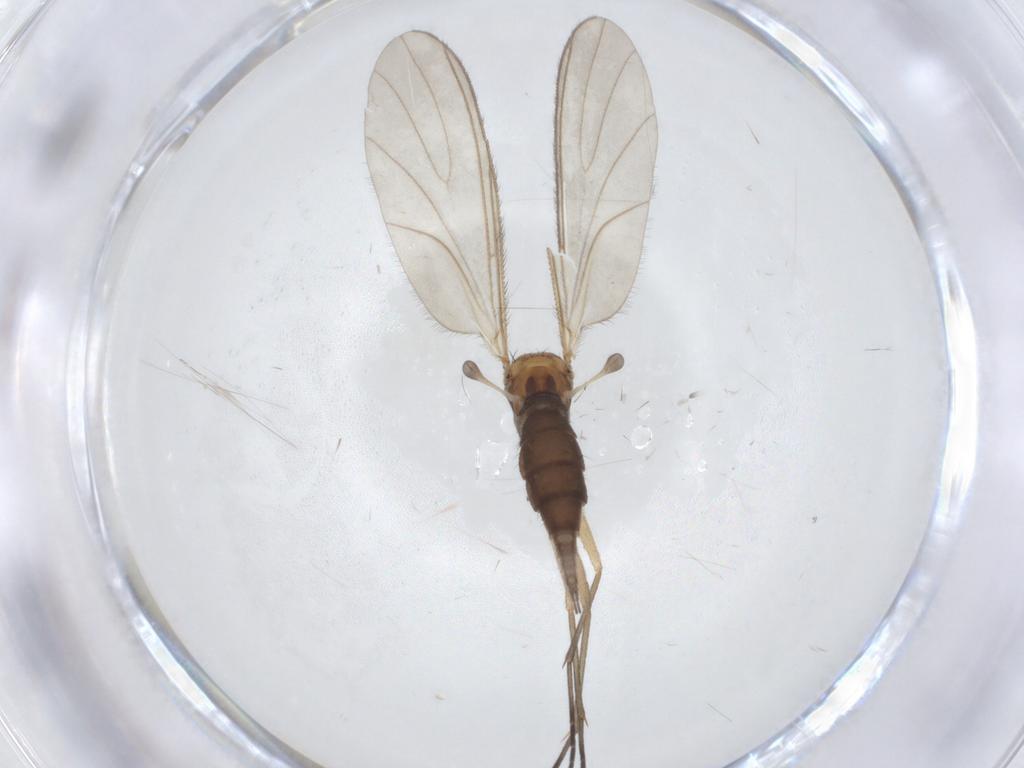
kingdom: Animalia
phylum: Arthropoda
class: Insecta
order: Diptera
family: Sciaridae
